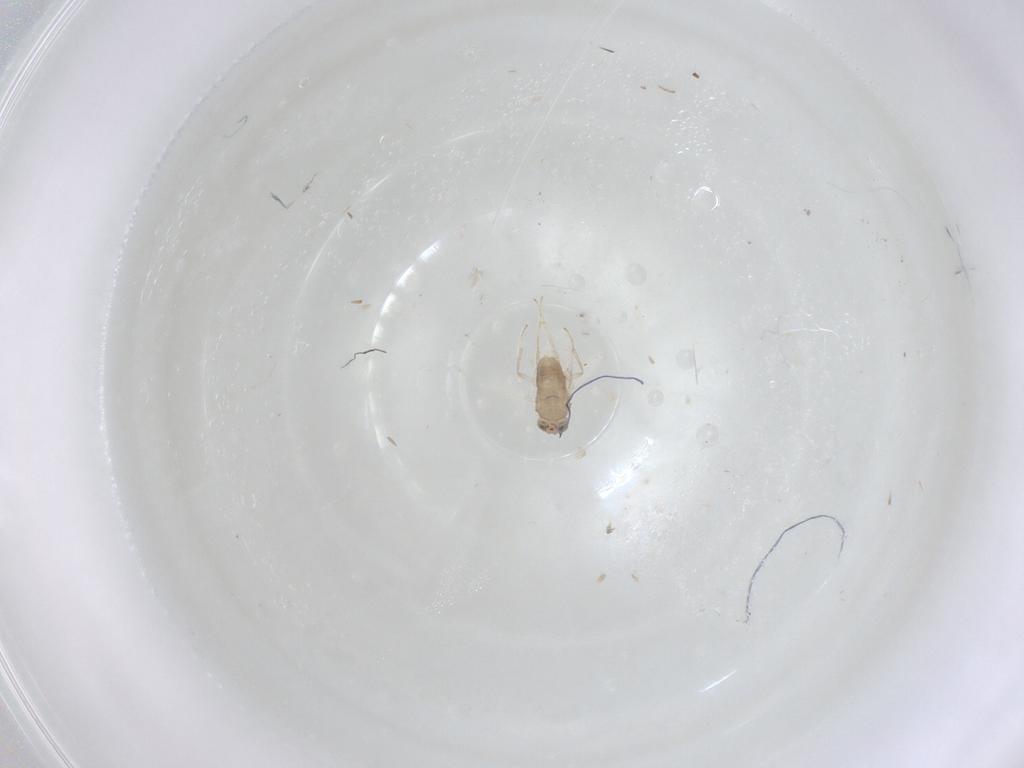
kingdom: Animalia
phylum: Arthropoda
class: Insecta
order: Hymenoptera
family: Aphelinidae
